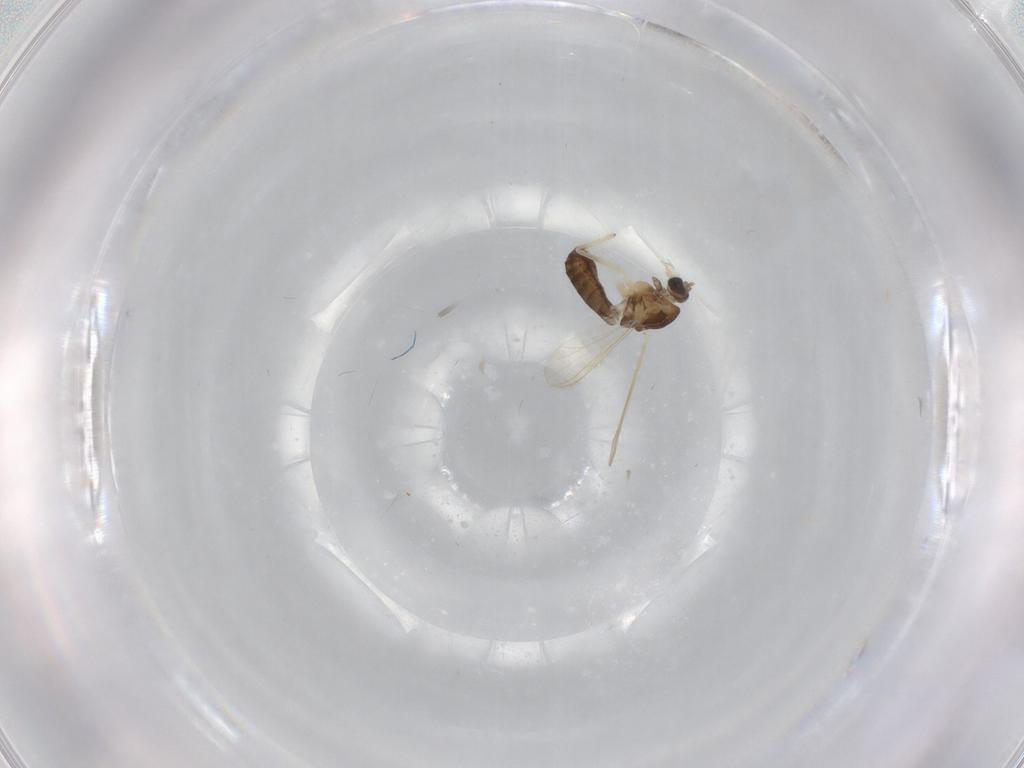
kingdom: Animalia
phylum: Arthropoda
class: Insecta
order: Diptera
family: Chironomidae
